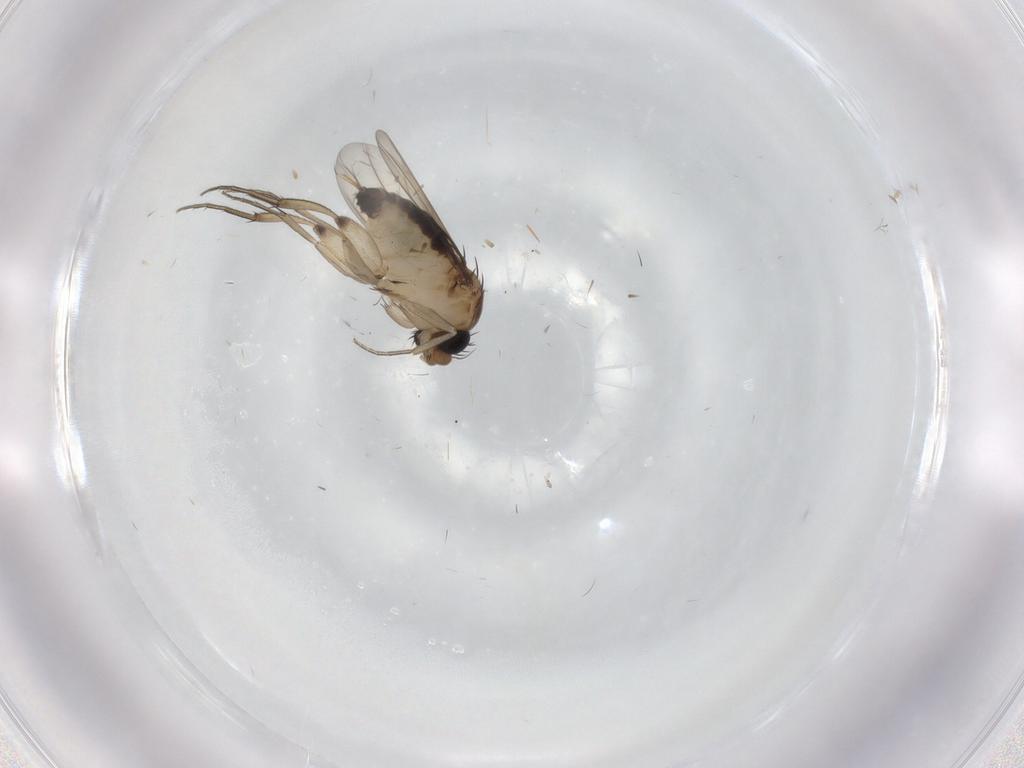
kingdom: Animalia
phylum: Arthropoda
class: Insecta
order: Diptera
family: Phoridae
